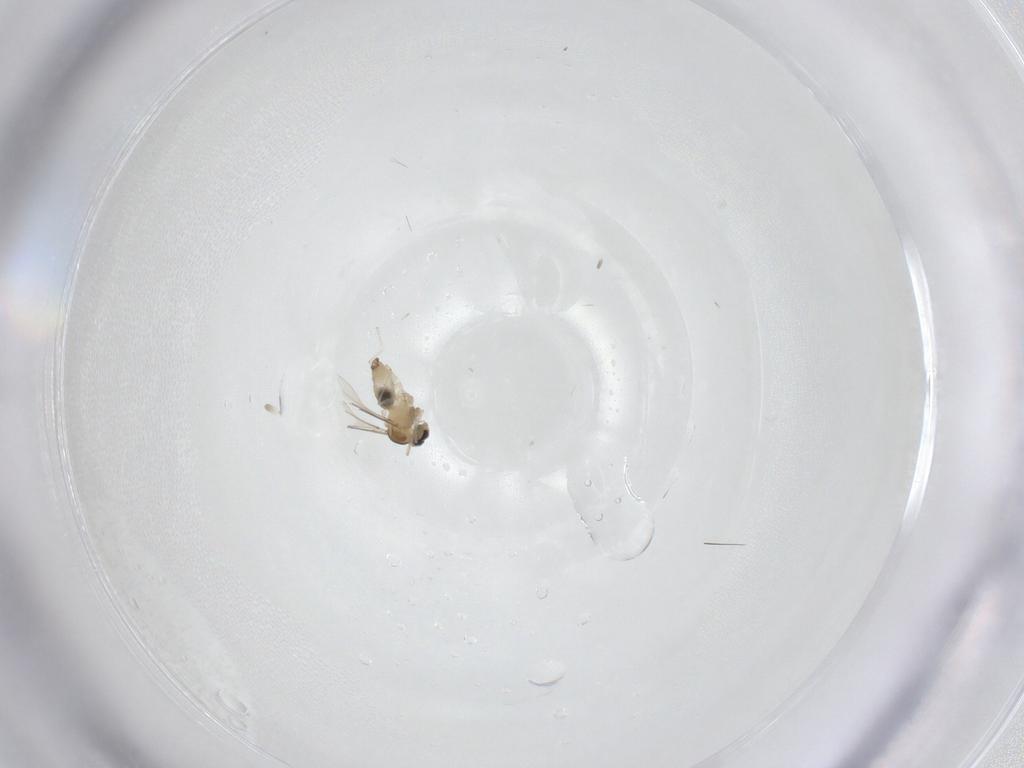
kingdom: Animalia
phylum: Arthropoda
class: Insecta
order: Diptera
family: Cecidomyiidae
